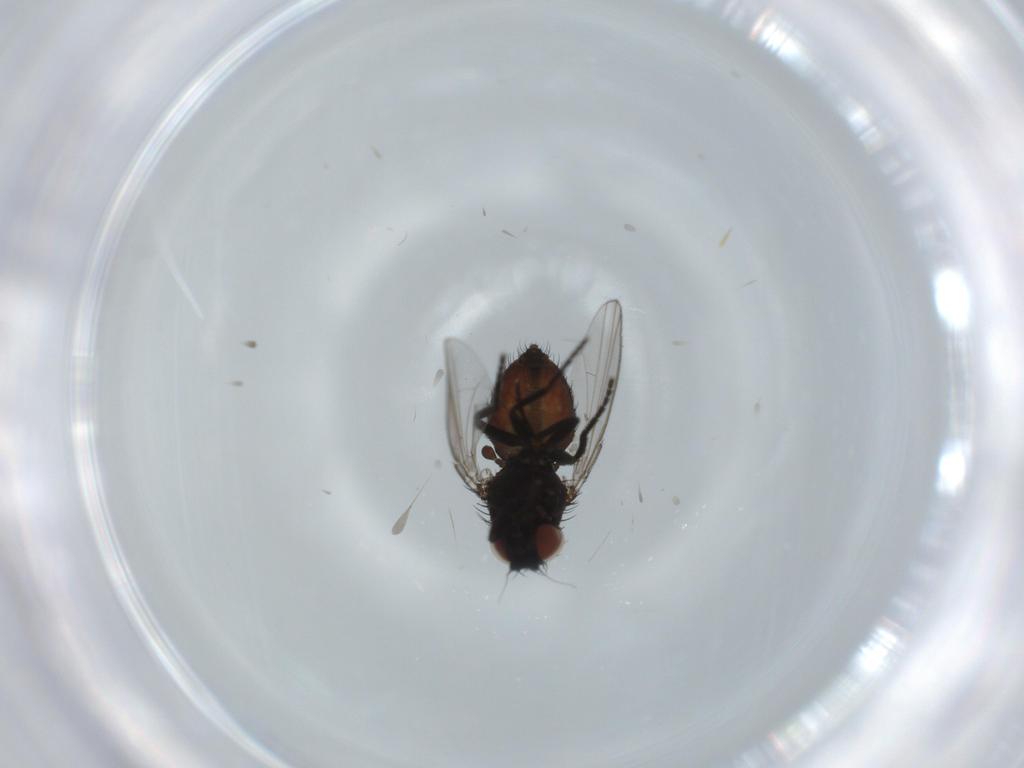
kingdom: Animalia
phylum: Arthropoda
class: Insecta
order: Diptera
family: Milichiidae
